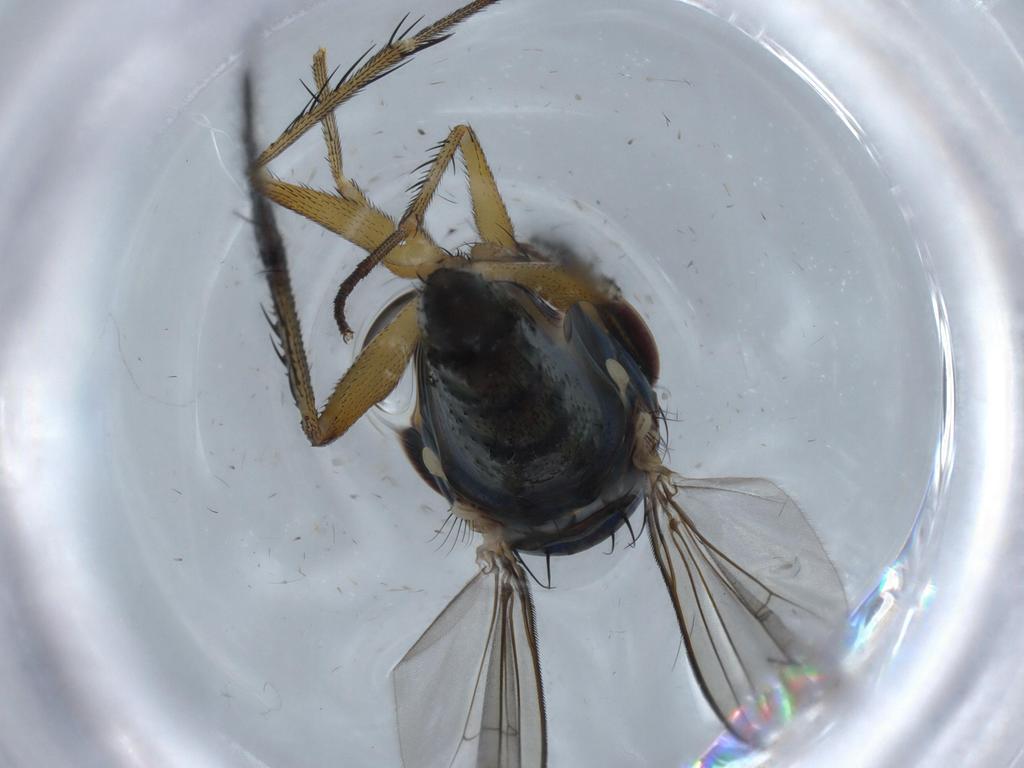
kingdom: Animalia
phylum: Arthropoda
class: Insecta
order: Diptera
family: Dolichopodidae
